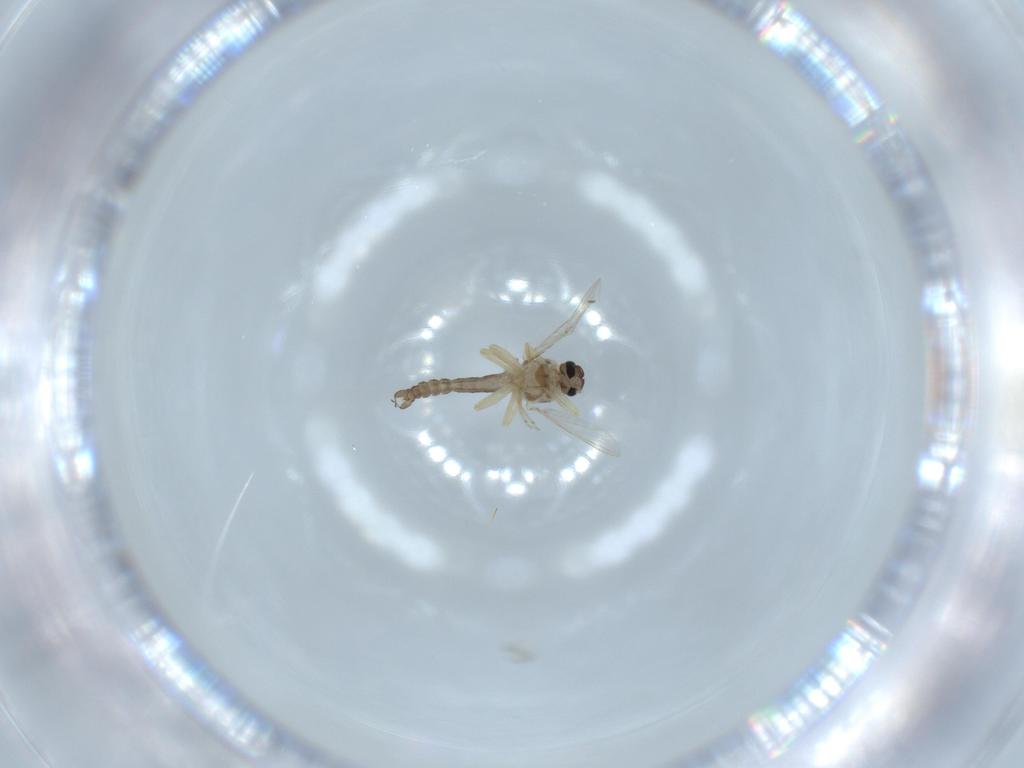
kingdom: Animalia
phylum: Arthropoda
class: Insecta
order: Diptera
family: Ceratopogonidae
